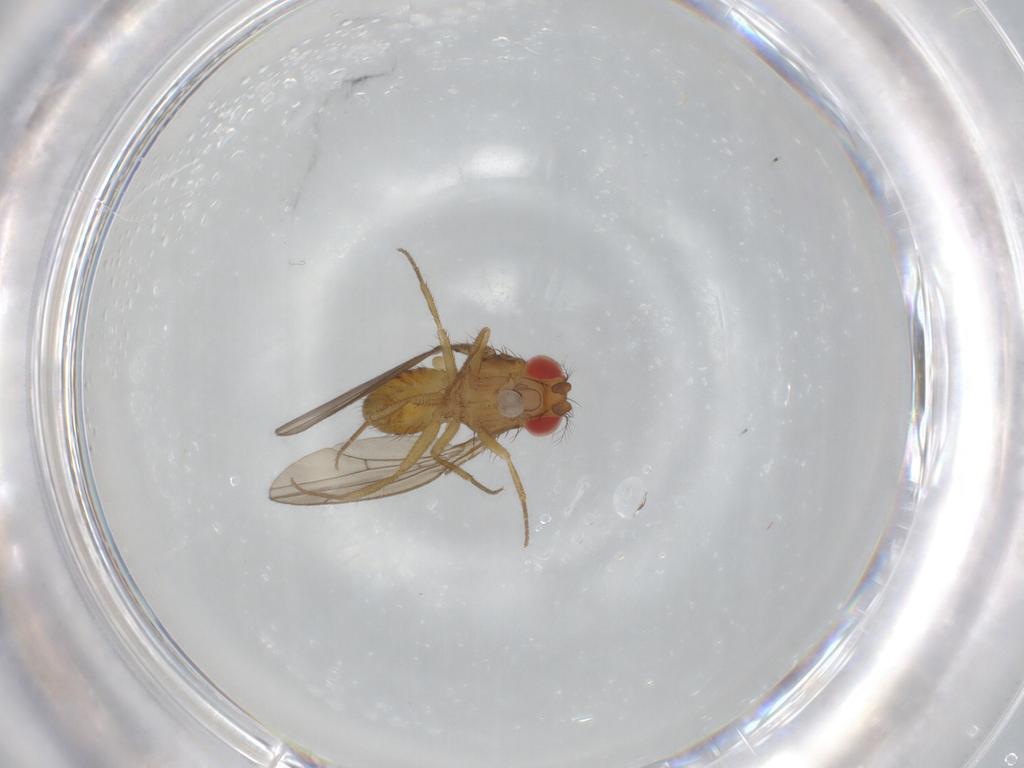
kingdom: Animalia
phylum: Arthropoda
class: Insecta
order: Diptera
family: Drosophilidae
